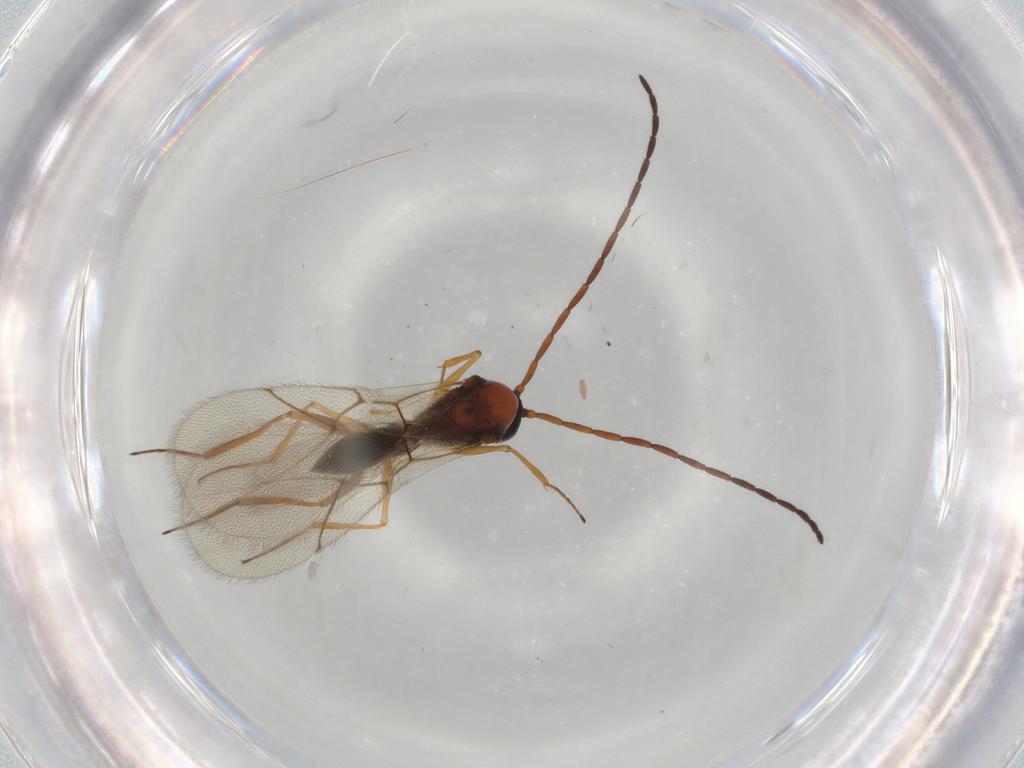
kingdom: Animalia
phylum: Arthropoda
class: Insecta
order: Hymenoptera
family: Figitidae
